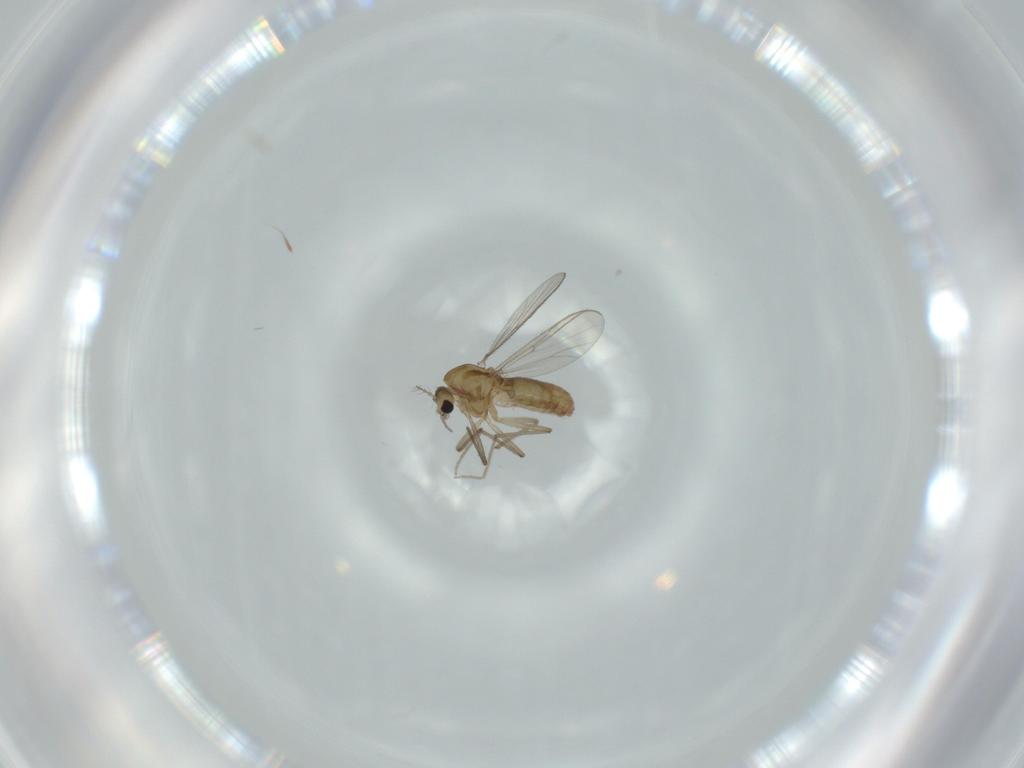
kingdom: Animalia
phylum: Arthropoda
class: Insecta
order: Diptera
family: Chironomidae
